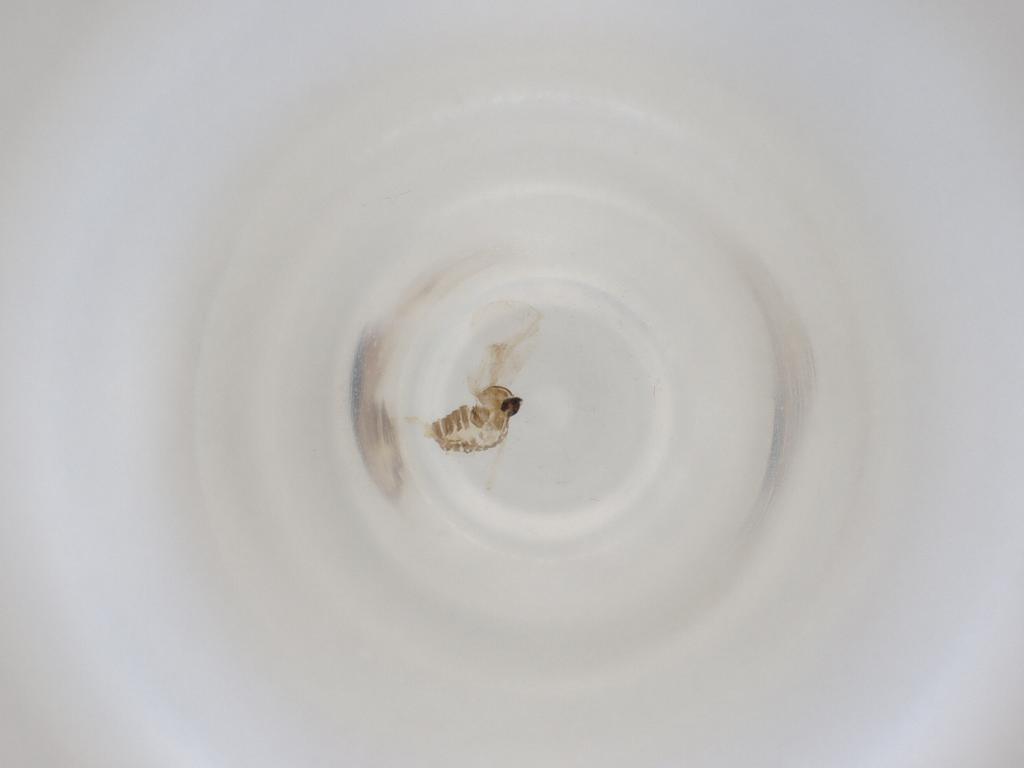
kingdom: Animalia
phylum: Arthropoda
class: Insecta
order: Diptera
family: Cecidomyiidae
